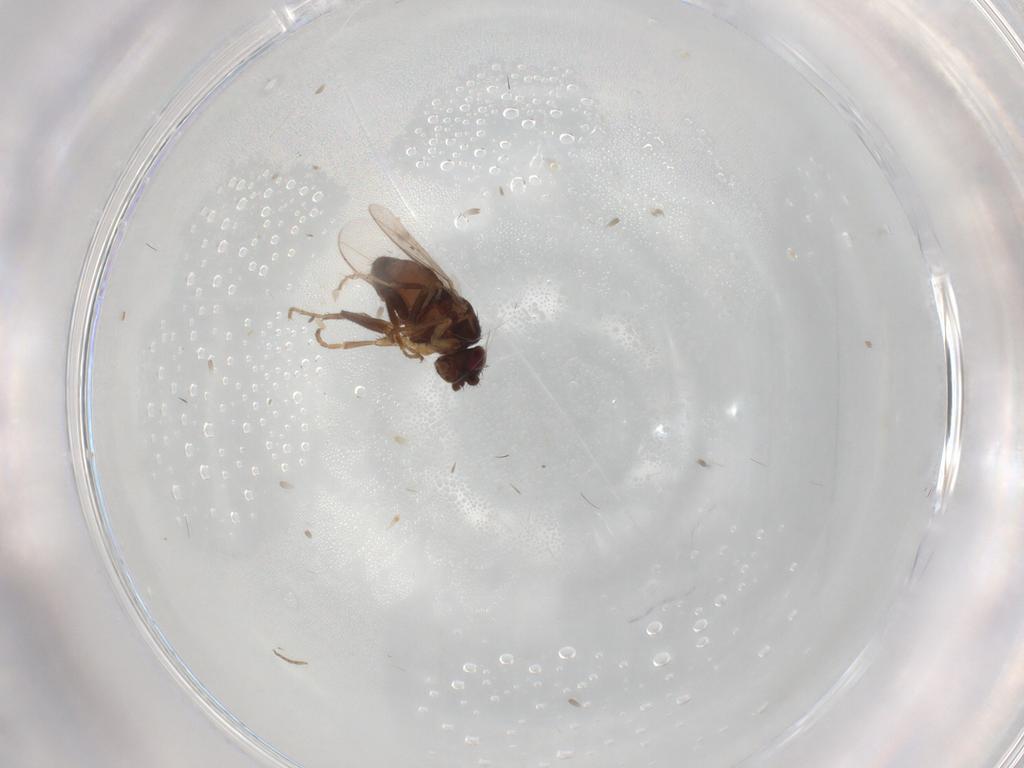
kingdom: Animalia
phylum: Arthropoda
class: Insecta
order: Diptera
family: Sphaeroceridae
